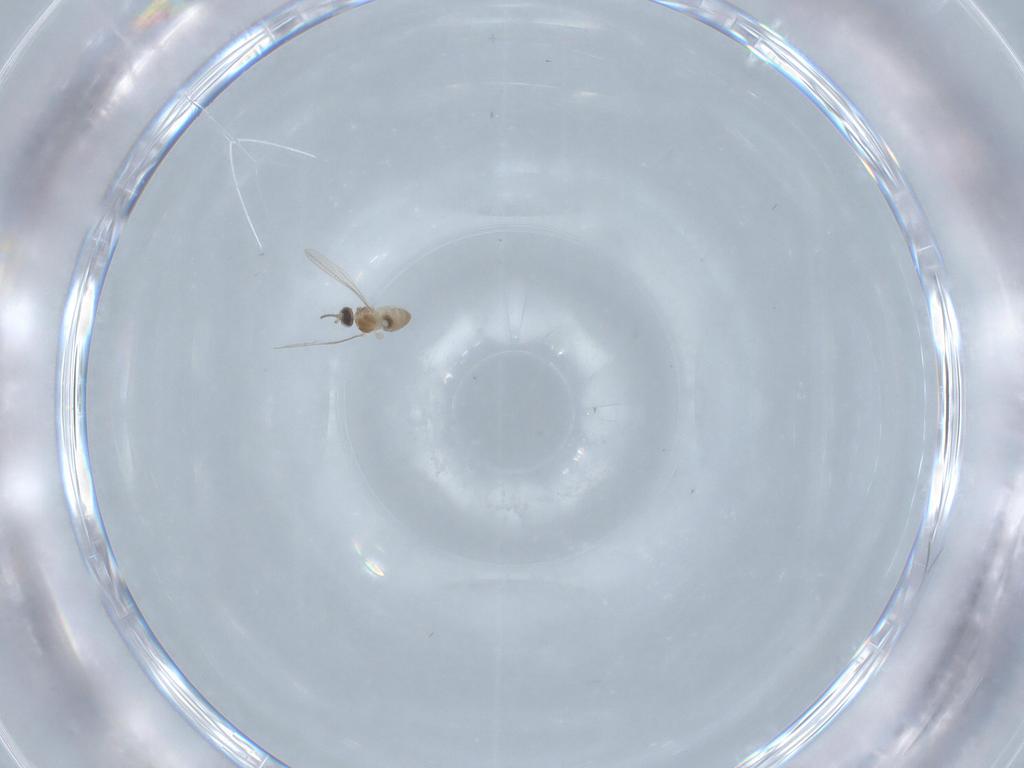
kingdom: Animalia
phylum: Arthropoda
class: Insecta
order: Diptera
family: Cecidomyiidae
